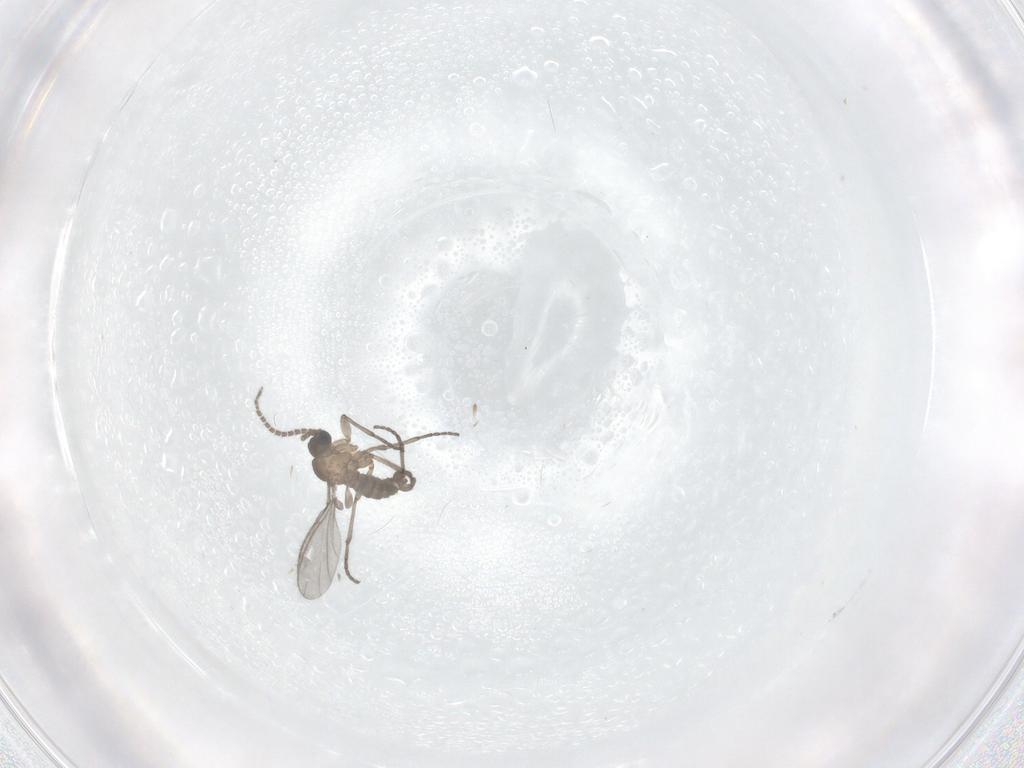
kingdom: Animalia
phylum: Arthropoda
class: Insecta
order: Diptera
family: Sciaridae
